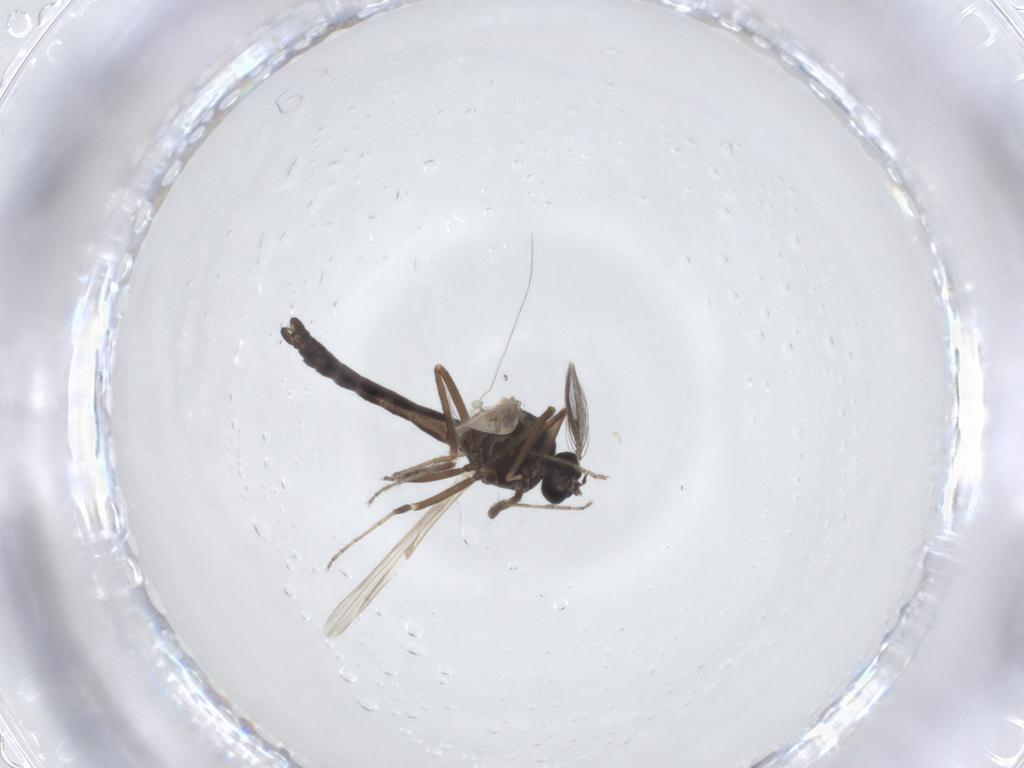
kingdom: Animalia
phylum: Arthropoda
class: Insecta
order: Diptera
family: Ceratopogonidae
